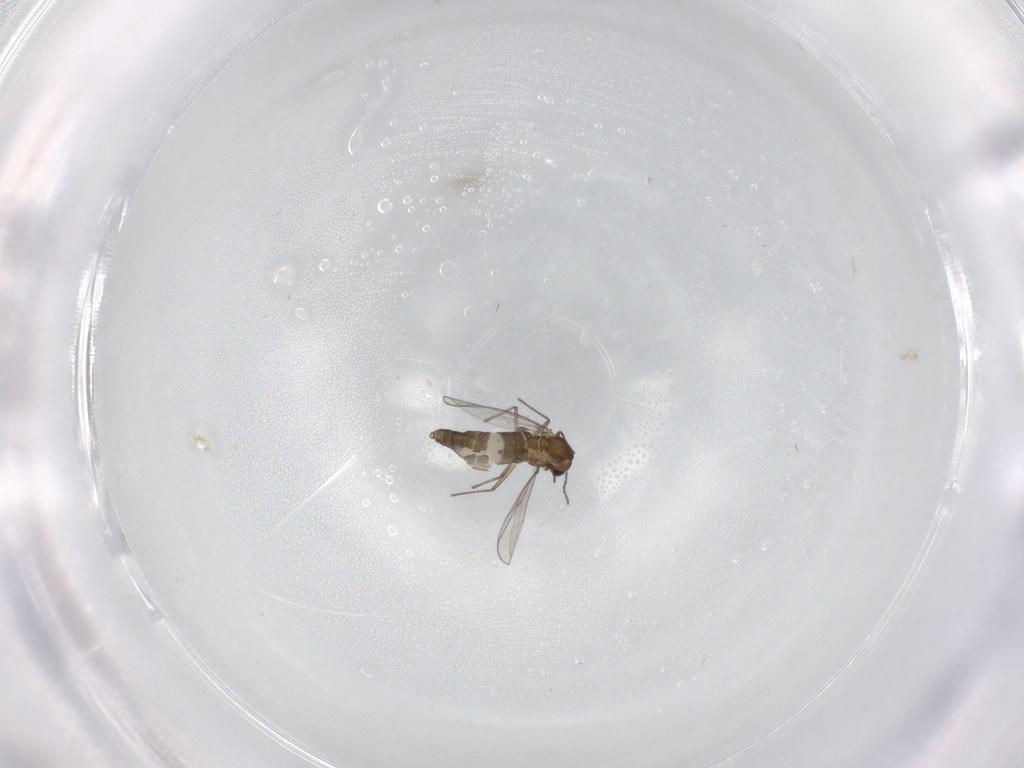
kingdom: Animalia
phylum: Arthropoda
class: Insecta
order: Diptera
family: Chironomidae
